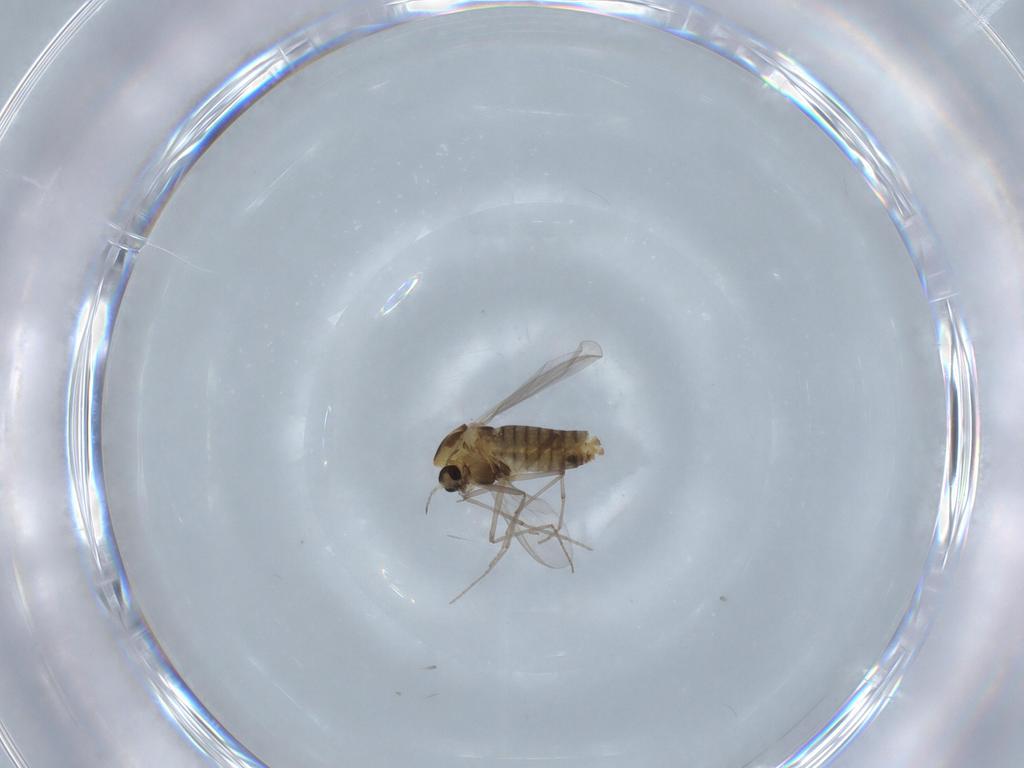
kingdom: Animalia
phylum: Arthropoda
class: Insecta
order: Diptera
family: Chironomidae
